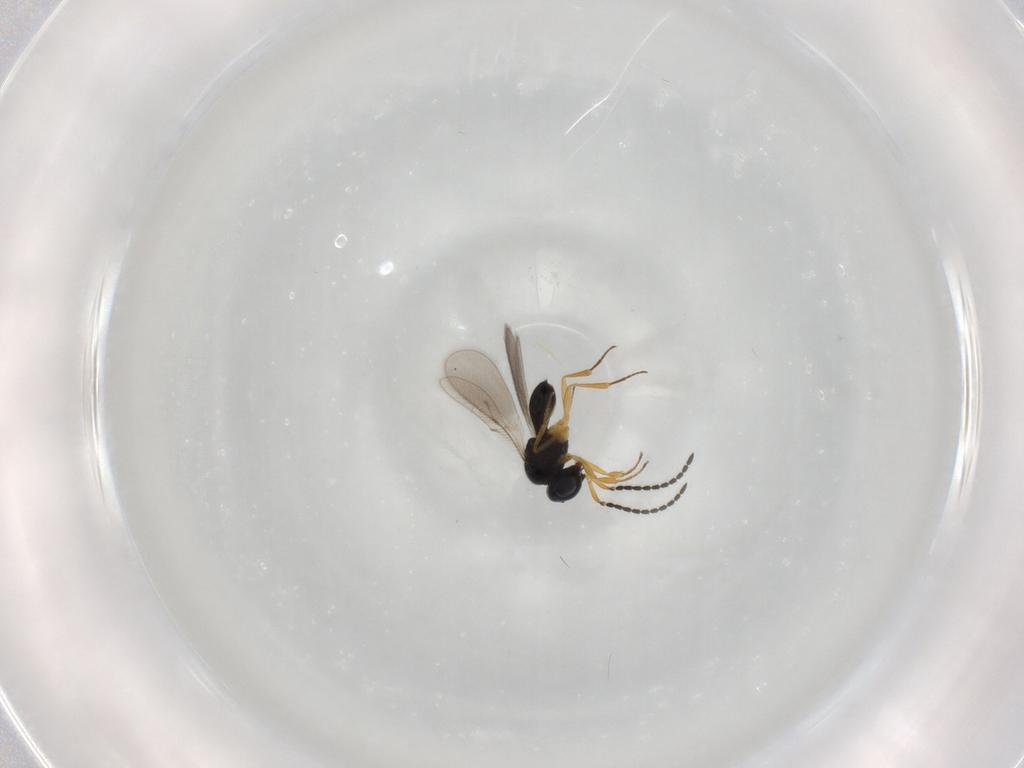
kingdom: Animalia
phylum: Arthropoda
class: Insecta
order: Hymenoptera
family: Scelionidae
